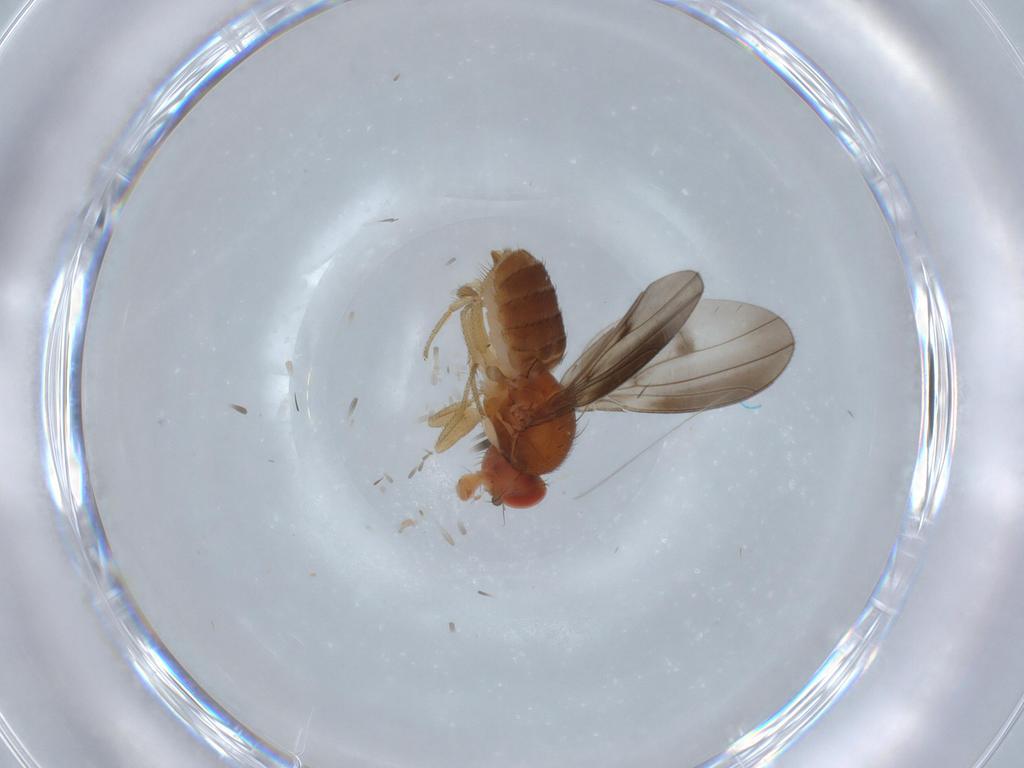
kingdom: Animalia
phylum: Arthropoda
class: Insecta
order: Diptera
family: Drosophilidae
